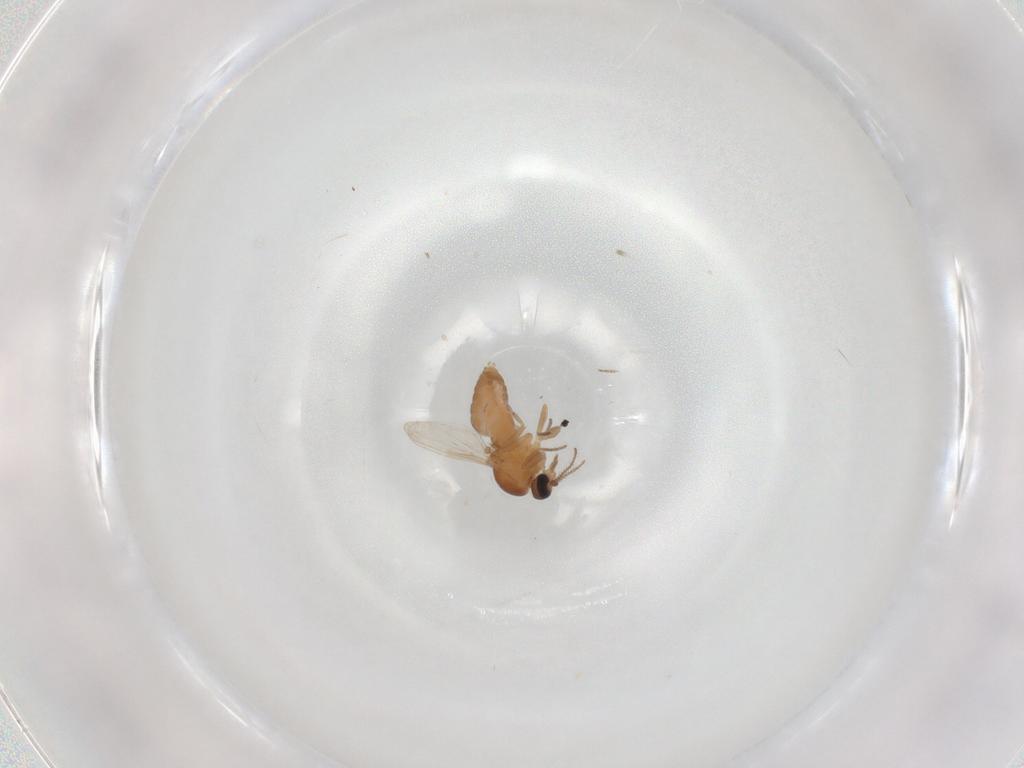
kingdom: Animalia
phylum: Arthropoda
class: Insecta
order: Diptera
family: Ceratopogonidae
